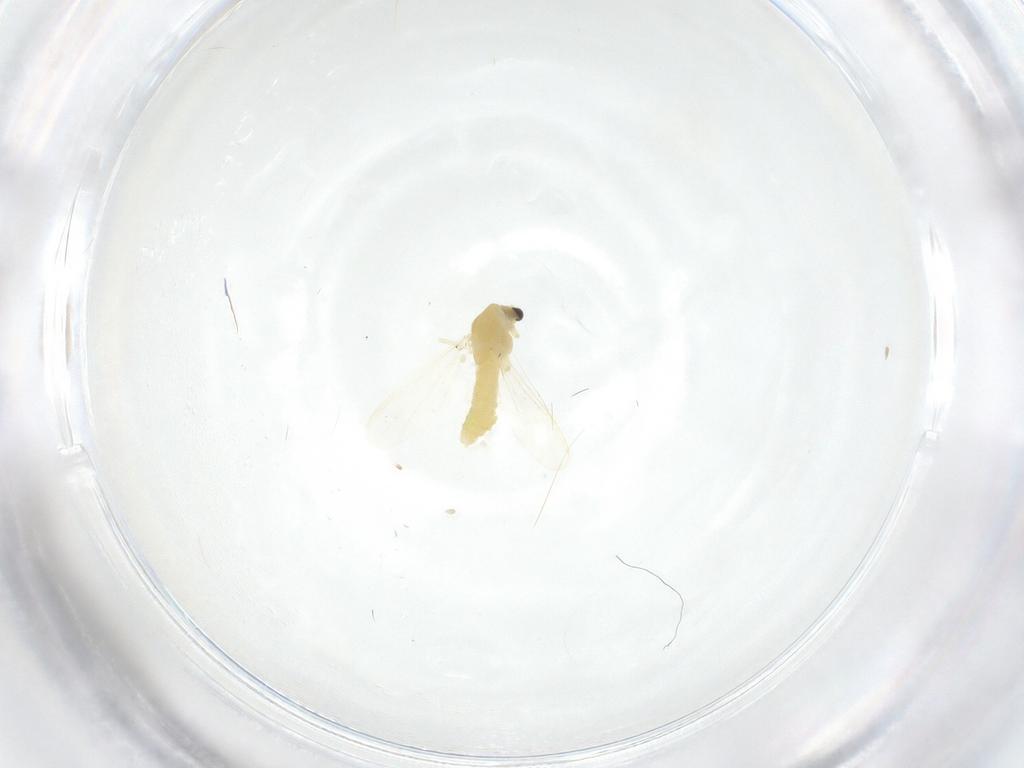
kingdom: Animalia
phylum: Arthropoda
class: Insecta
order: Diptera
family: Chironomidae
